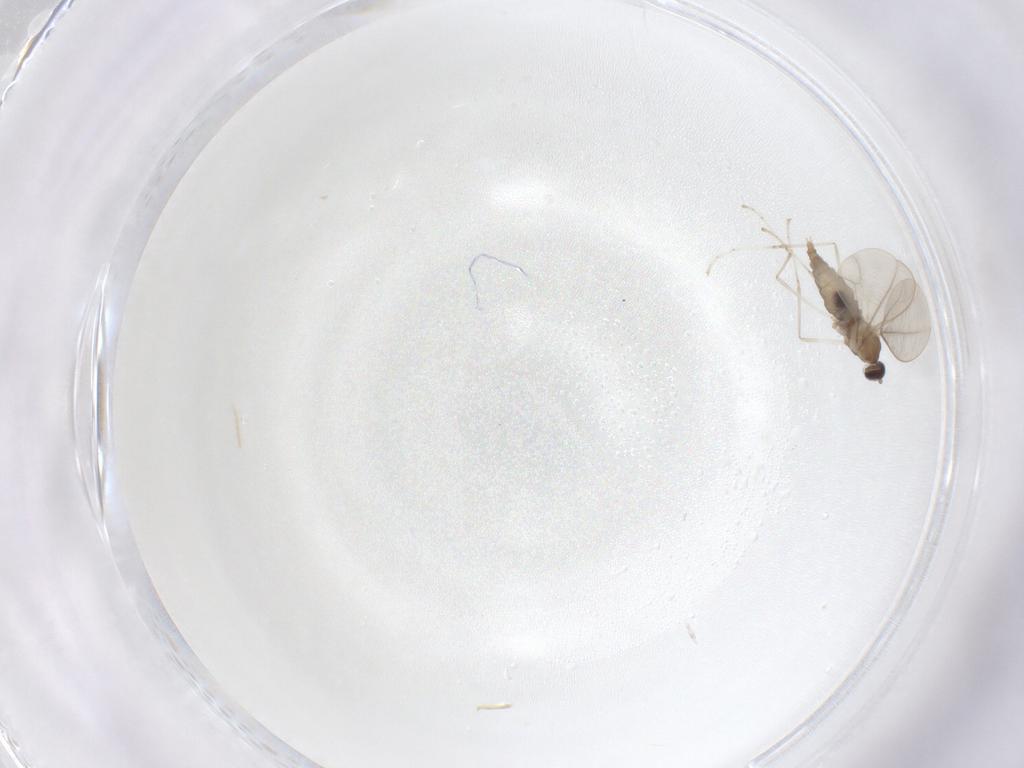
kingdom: Animalia
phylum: Arthropoda
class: Insecta
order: Diptera
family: Cecidomyiidae
